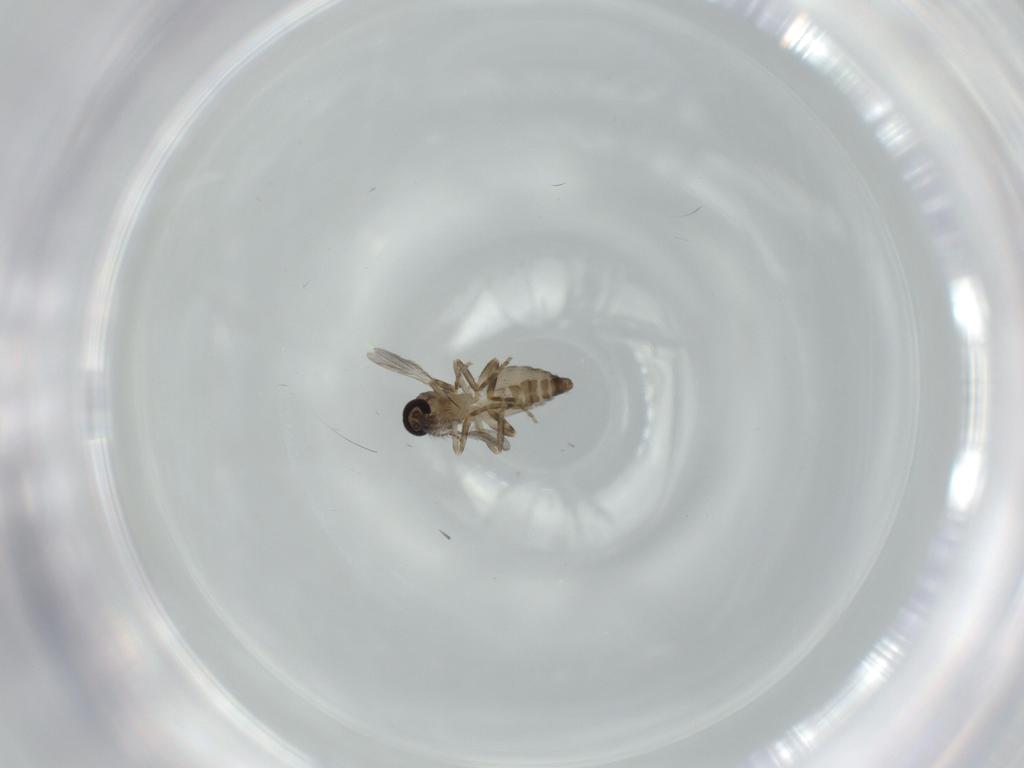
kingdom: Animalia
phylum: Arthropoda
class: Insecta
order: Diptera
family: Ceratopogonidae
